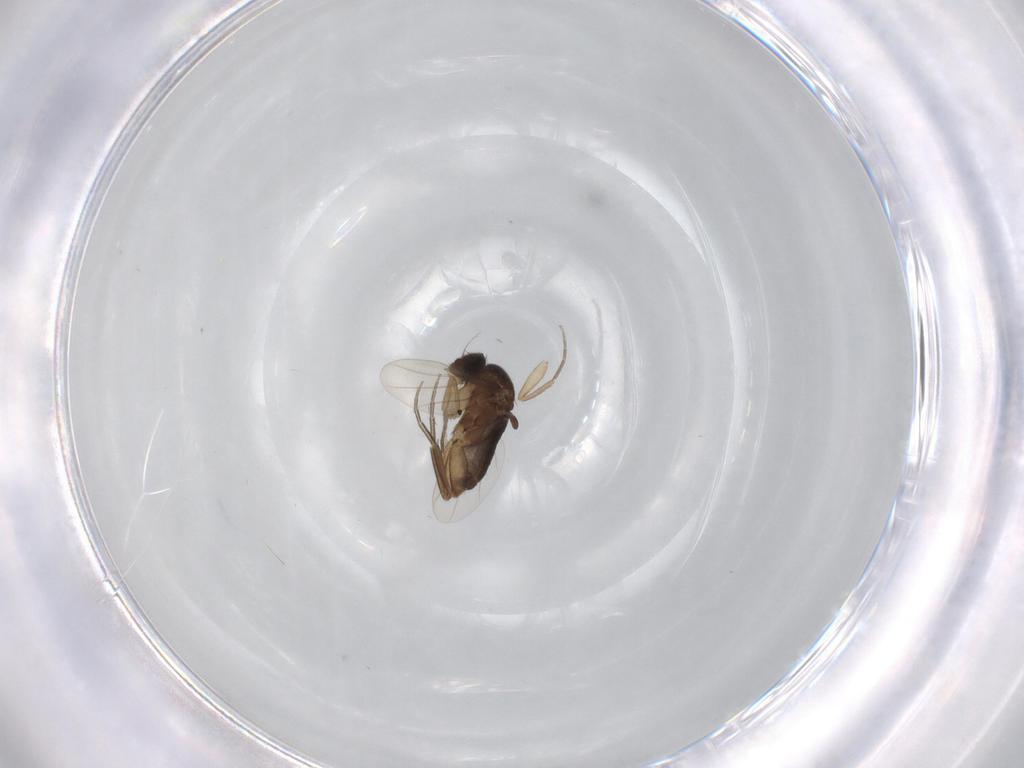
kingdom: Animalia
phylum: Arthropoda
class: Insecta
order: Diptera
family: Phoridae
